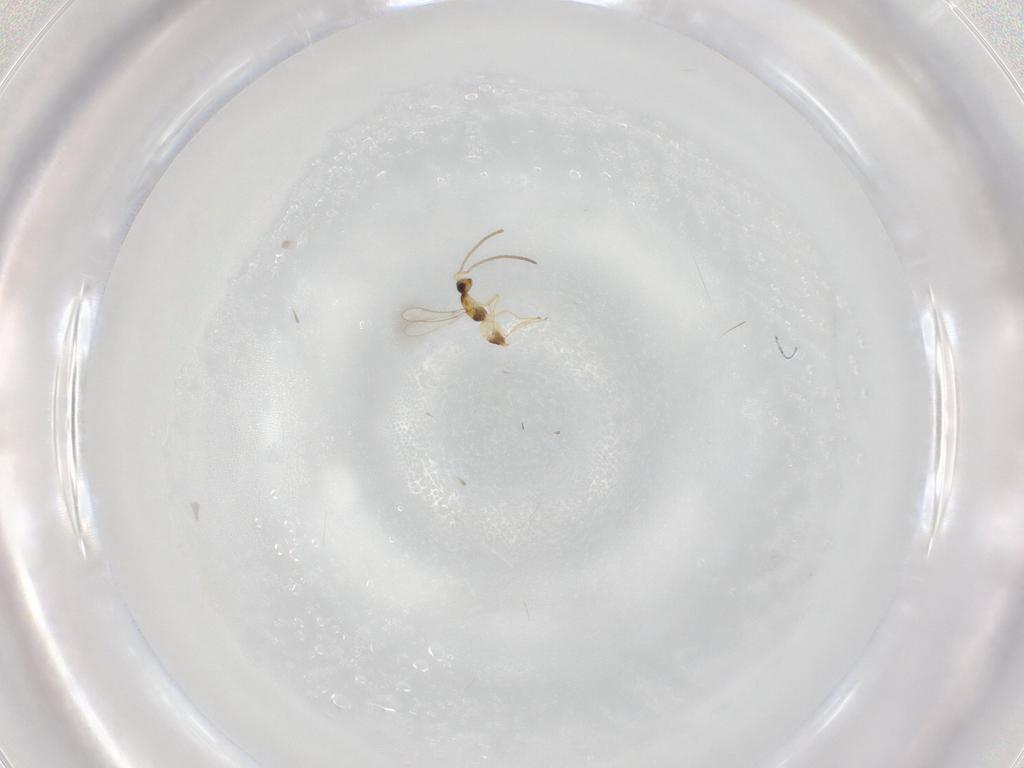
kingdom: Animalia
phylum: Arthropoda
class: Insecta
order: Hymenoptera
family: Mymaridae
